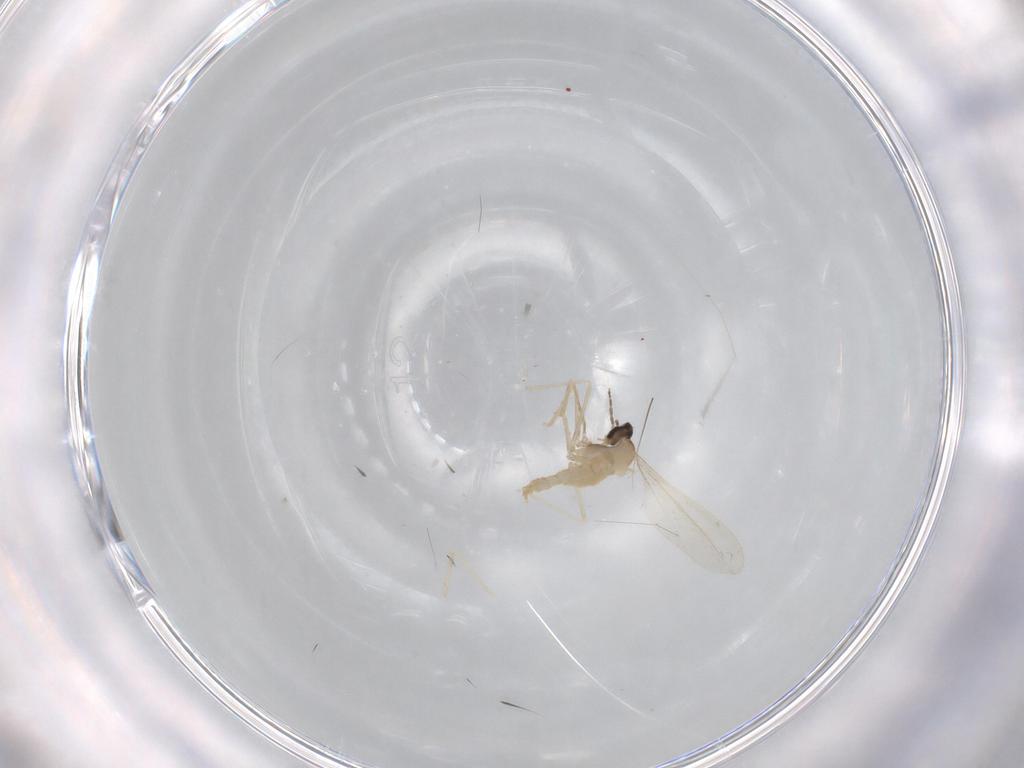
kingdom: Animalia
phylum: Arthropoda
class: Insecta
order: Diptera
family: Cecidomyiidae
